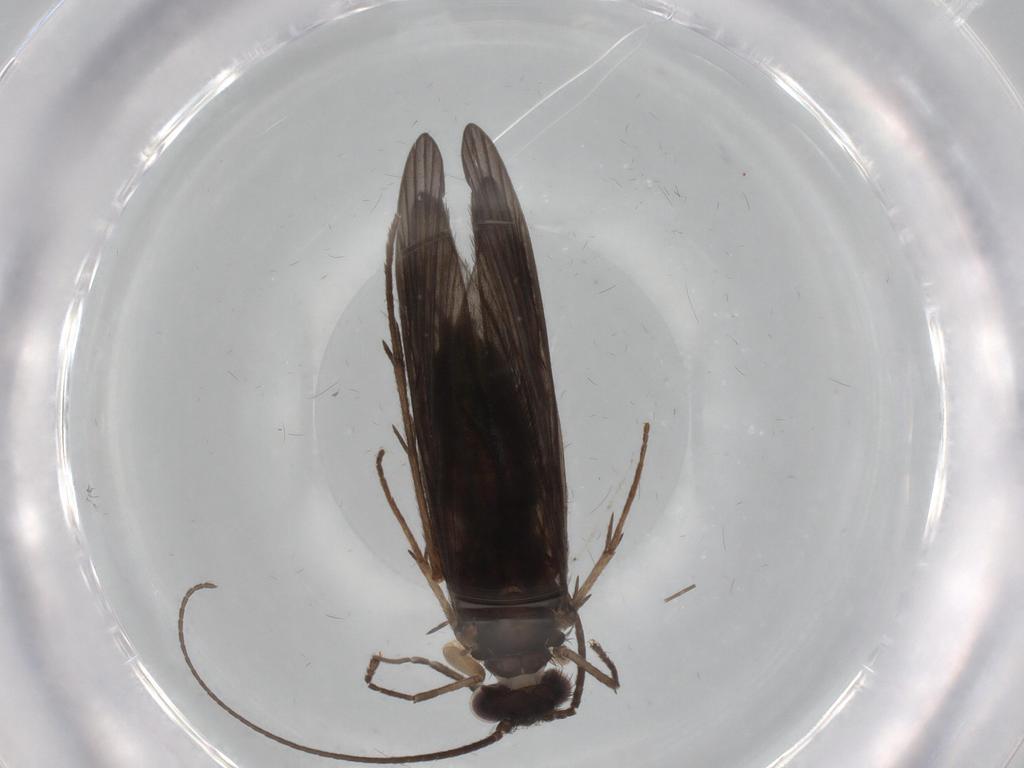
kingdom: Animalia
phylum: Arthropoda
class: Insecta
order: Trichoptera
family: Philopotamidae
